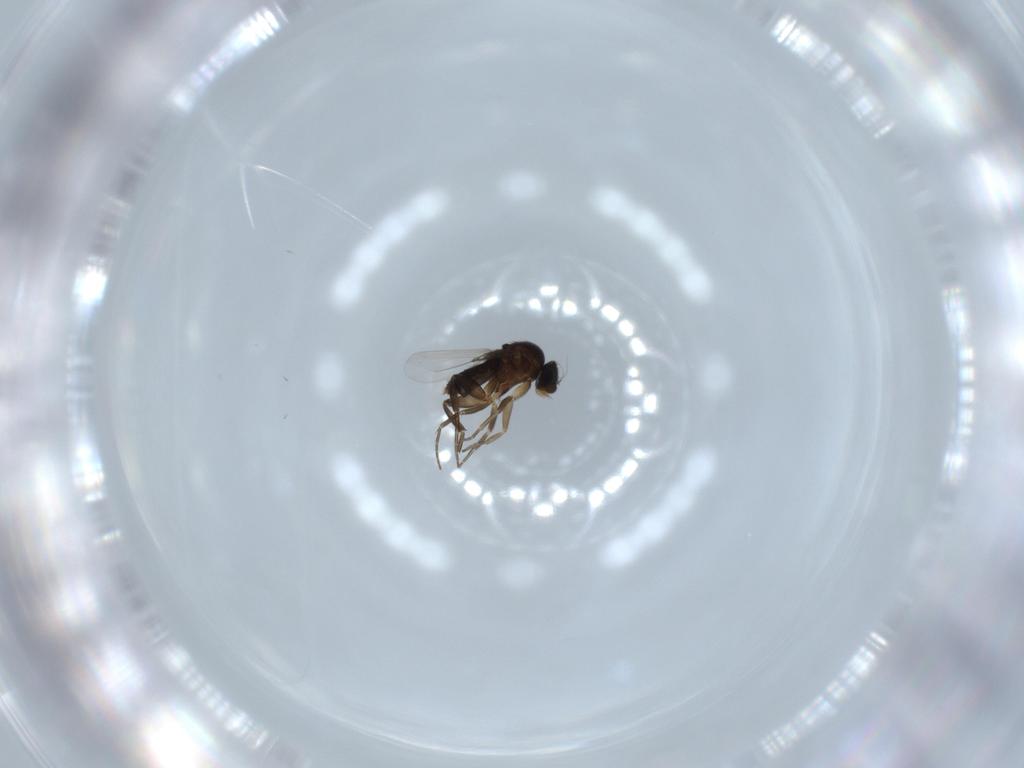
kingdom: Animalia
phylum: Arthropoda
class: Insecta
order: Diptera
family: Phoridae
